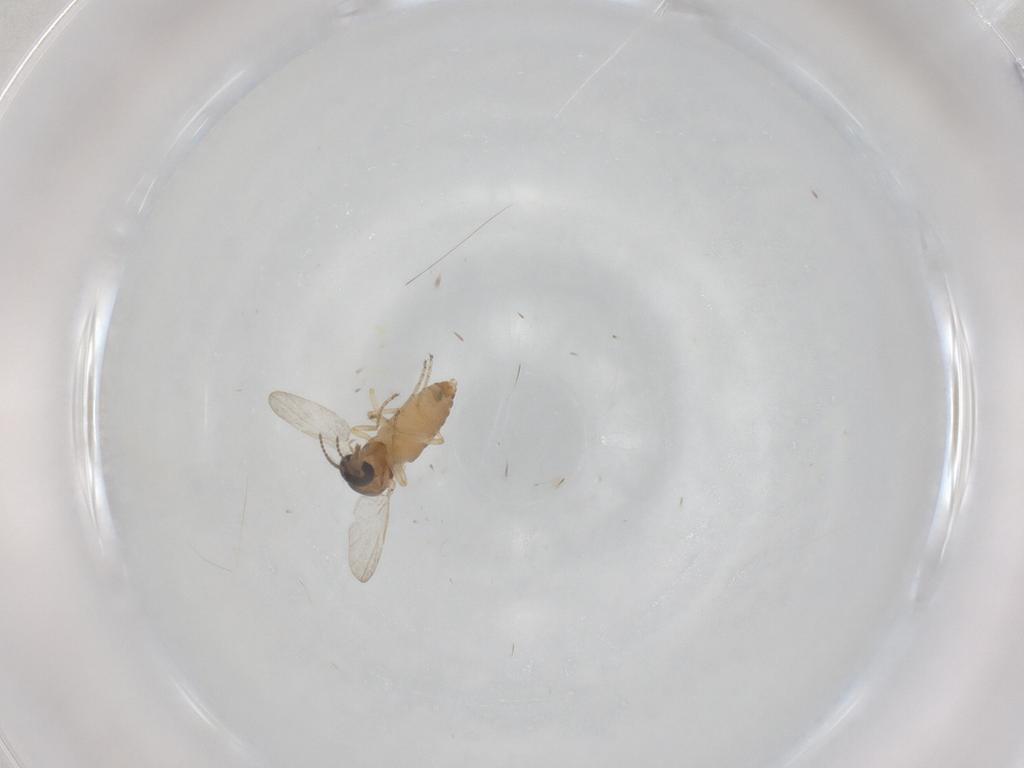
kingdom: Animalia
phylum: Arthropoda
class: Insecta
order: Diptera
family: Ceratopogonidae
